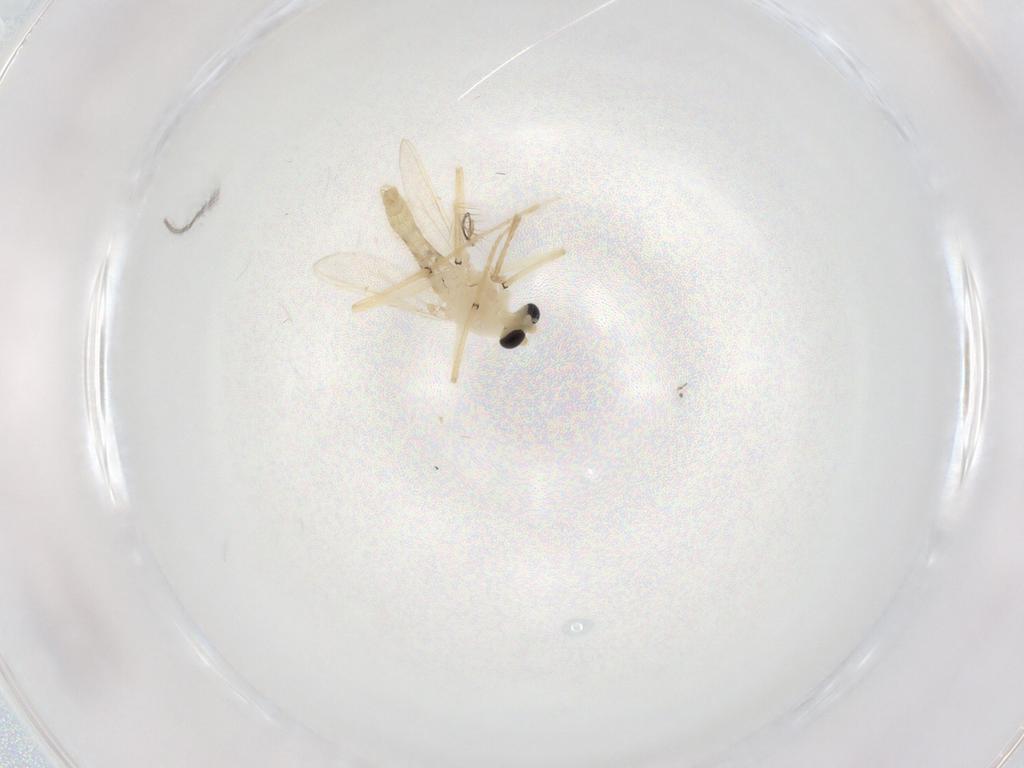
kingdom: Animalia
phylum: Arthropoda
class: Insecta
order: Diptera
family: Chironomidae
